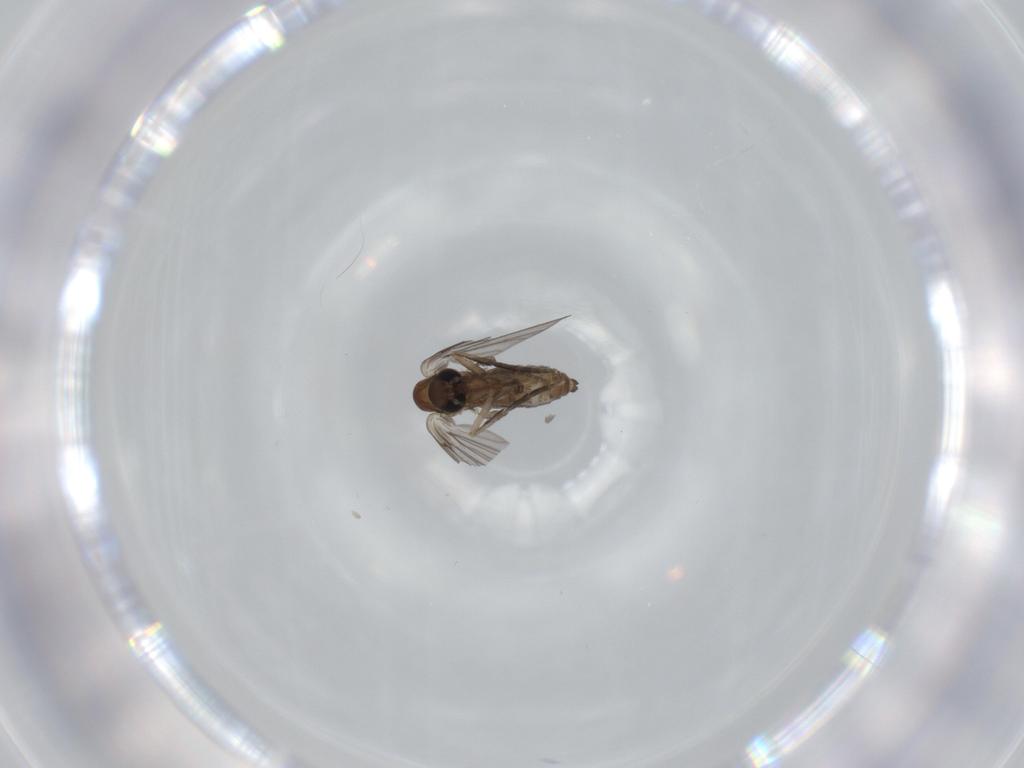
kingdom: Animalia
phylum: Arthropoda
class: Insecta
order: Diptera
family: Psychodidae
